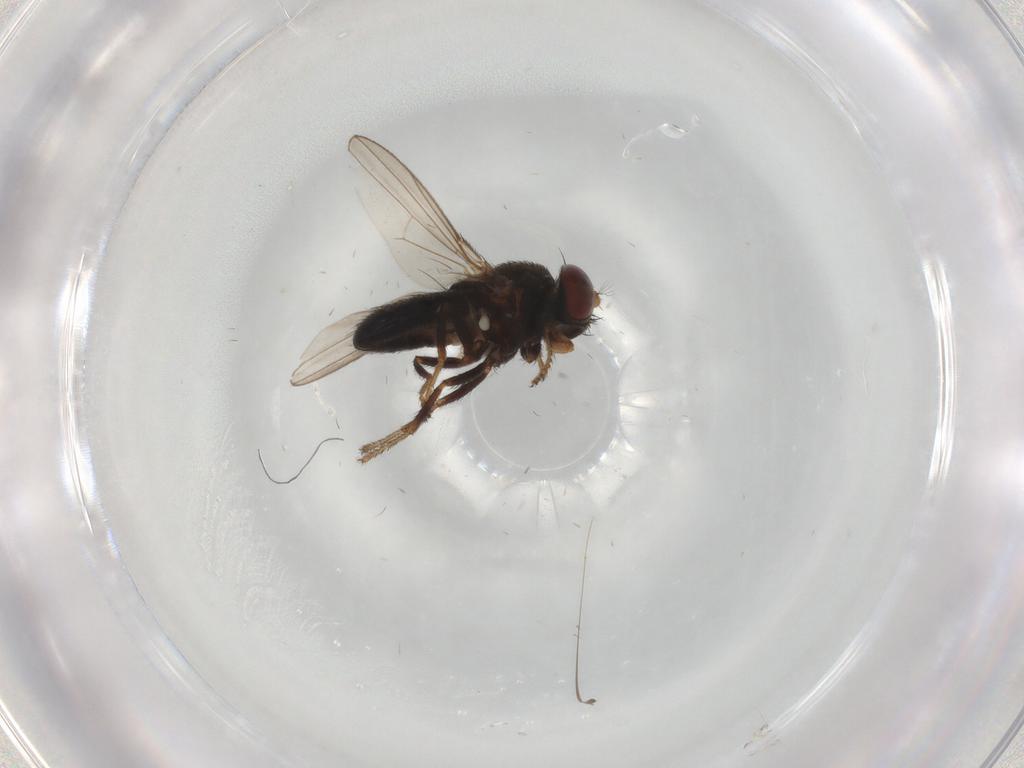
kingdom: Animalia
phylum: Arthropoda
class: Insecta
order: Diptera
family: Ephydridae
